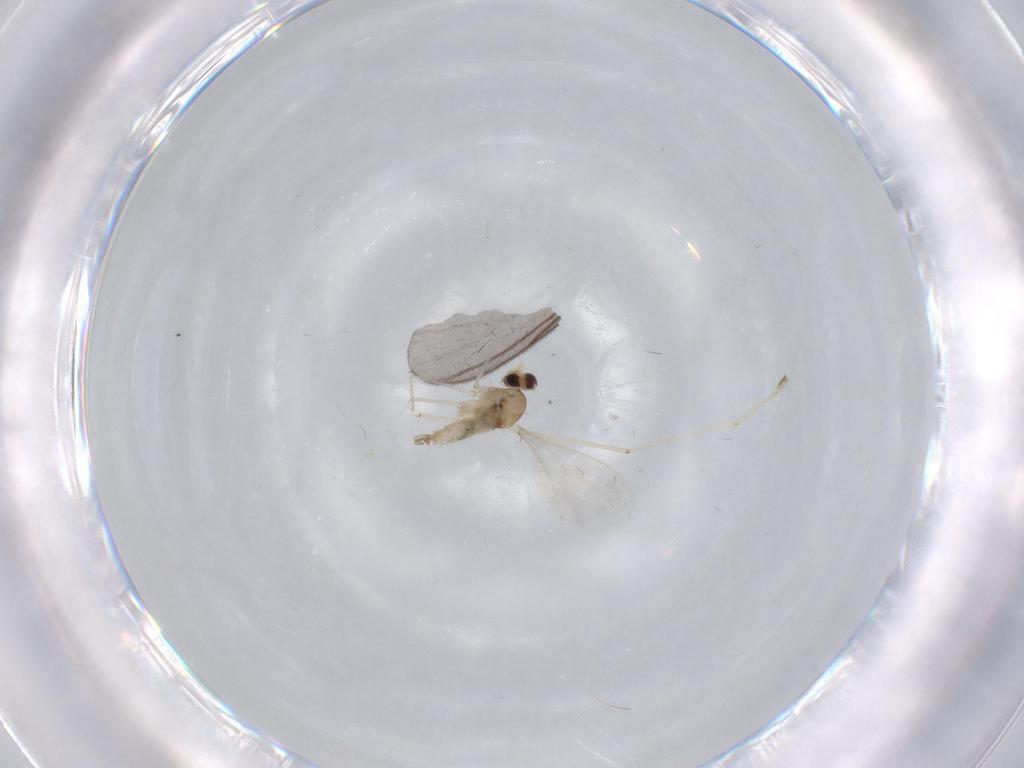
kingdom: Animalia
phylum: Arthropoda
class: Insecta
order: Diptera
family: Cecidomyiidae
